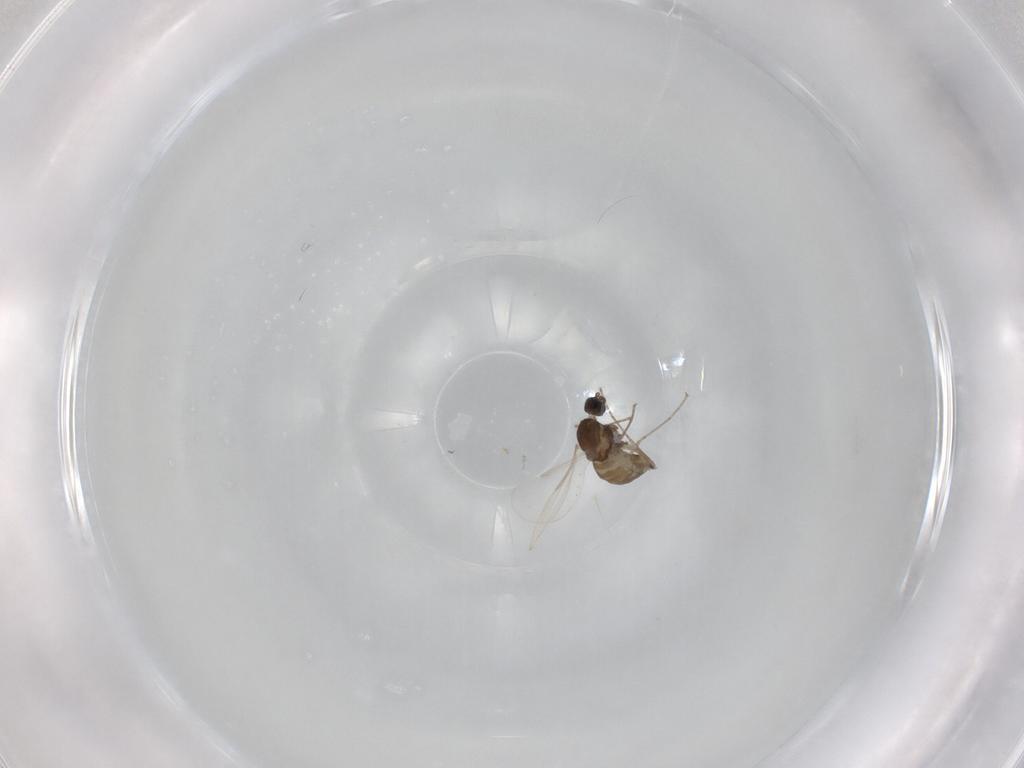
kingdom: Animalia
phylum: Arthropoda
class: Insecta
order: Diptera
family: Cecidomyiidae
